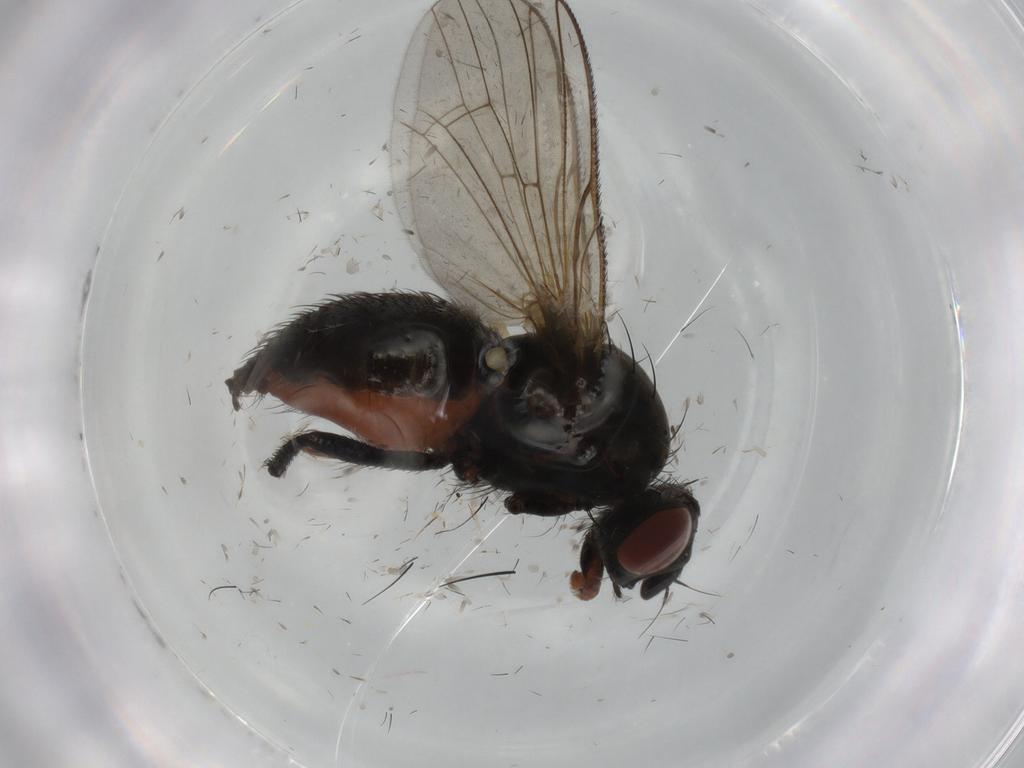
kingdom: Animalia
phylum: Arthropoda
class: Insecta
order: Diptera
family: Anthomyiidae
